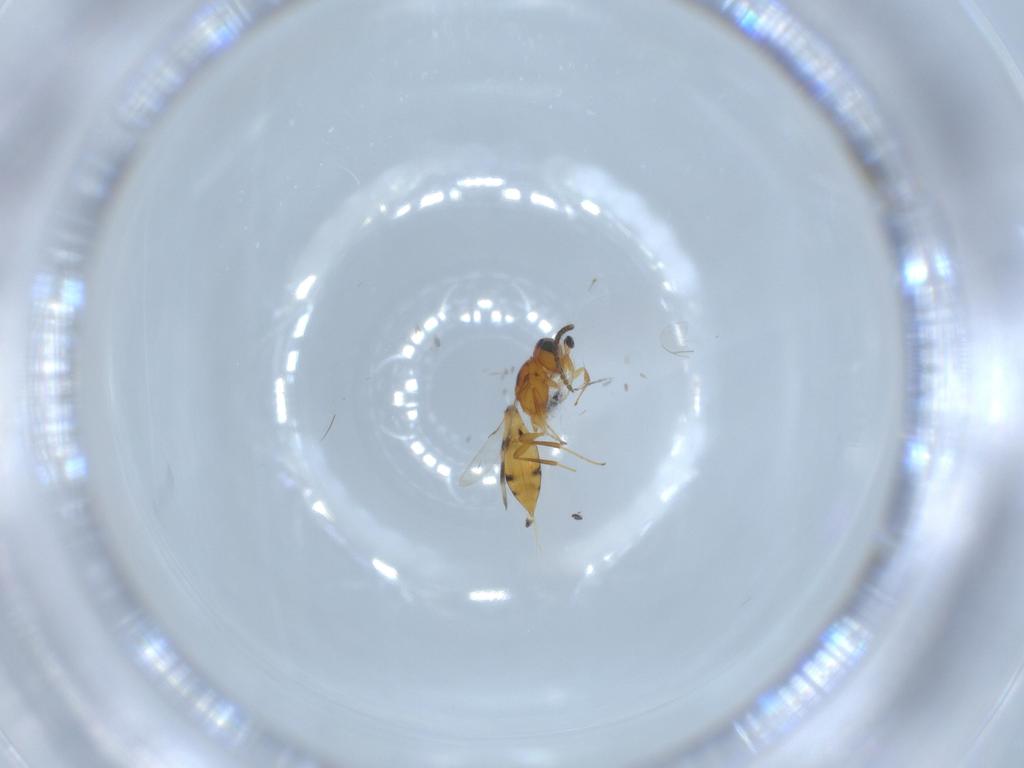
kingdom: Animalia
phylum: Arthropoda
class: Insecta
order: Hymenoptera
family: Scelionidae
